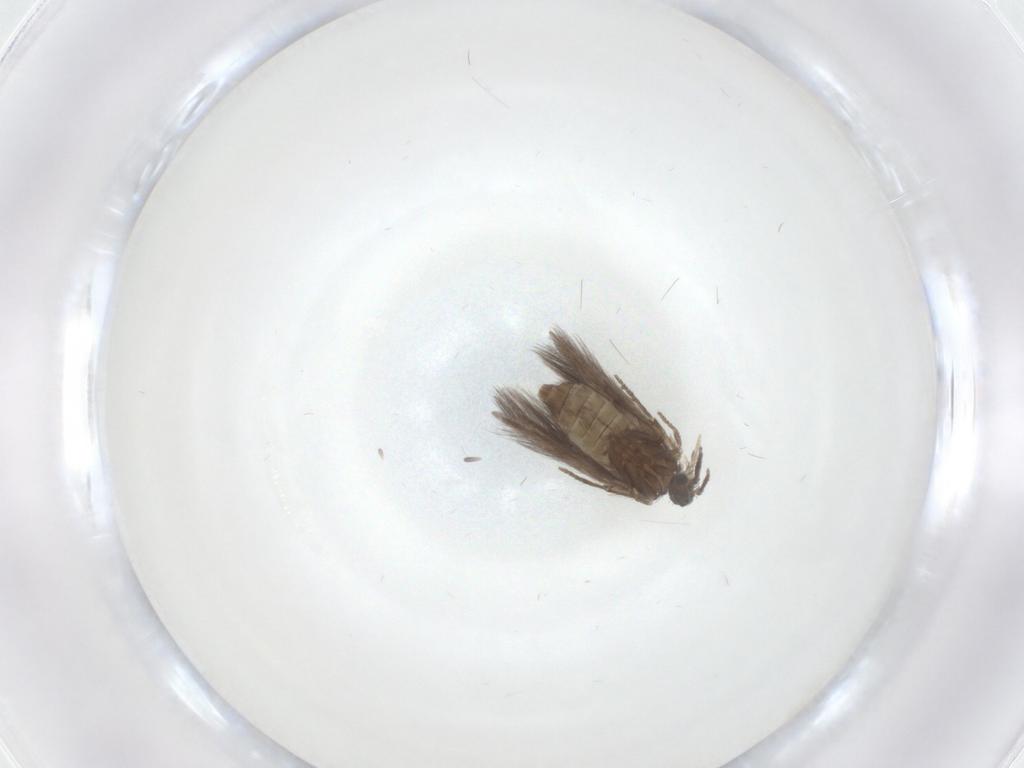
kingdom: Animalia
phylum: Arthropoda
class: Insecta
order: Trichoptera
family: Hydroptilidae
